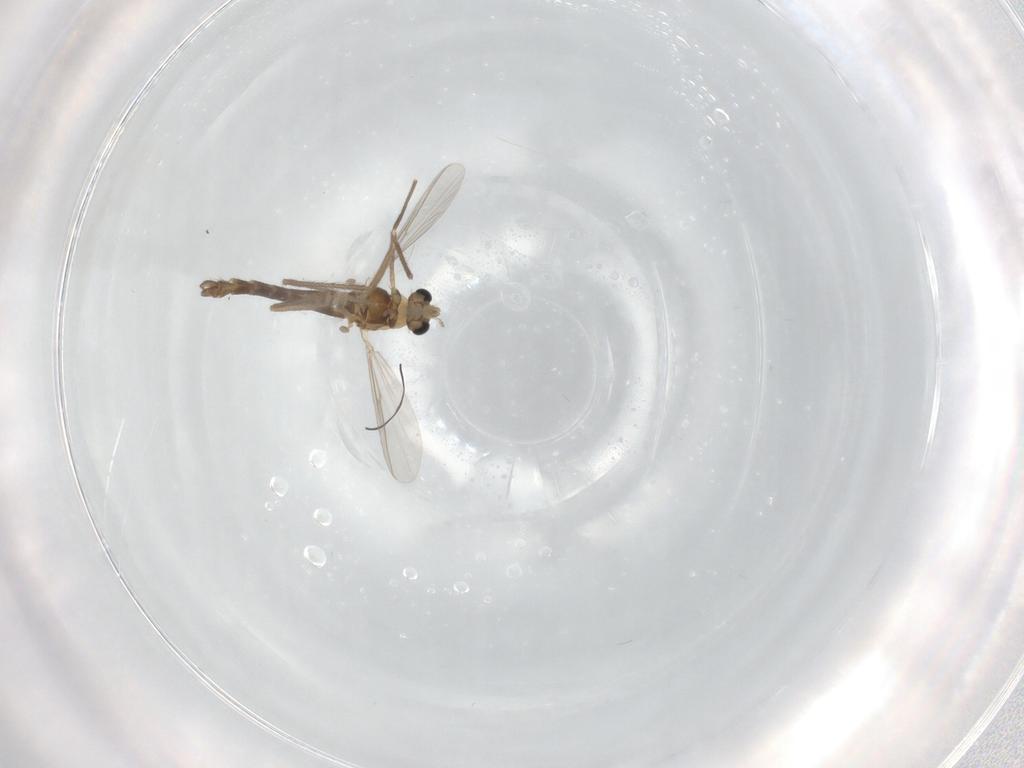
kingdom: Animalia
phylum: Arthropoda
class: Insecta
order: Diptera
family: Chironomidae
